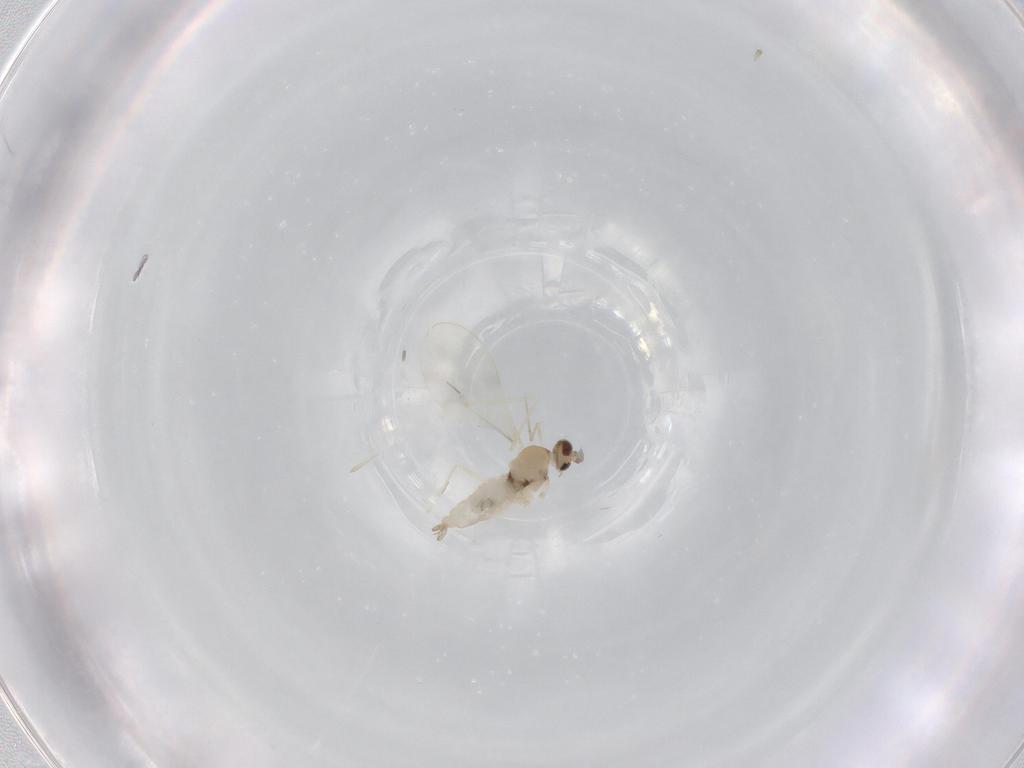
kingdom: Animalia
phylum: Arthropoda
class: Insecta
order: Diptera
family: Cecidomyiidae
